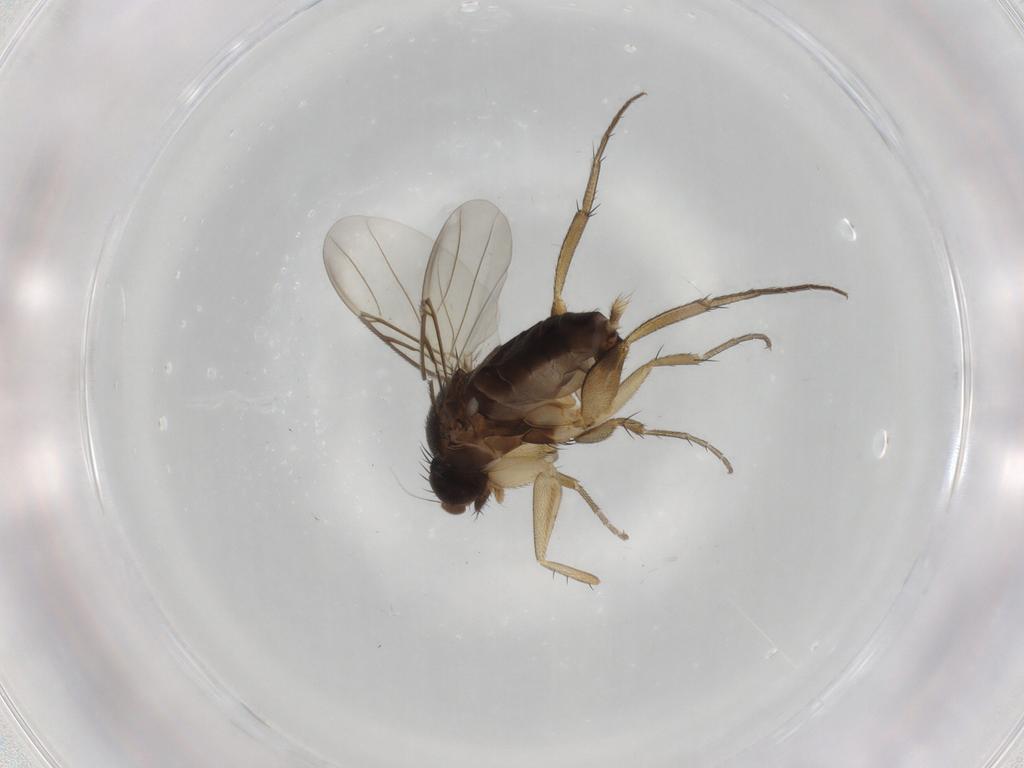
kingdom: Animalia
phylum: Arthropoda
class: Insecta
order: Diptera
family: Phoridae
